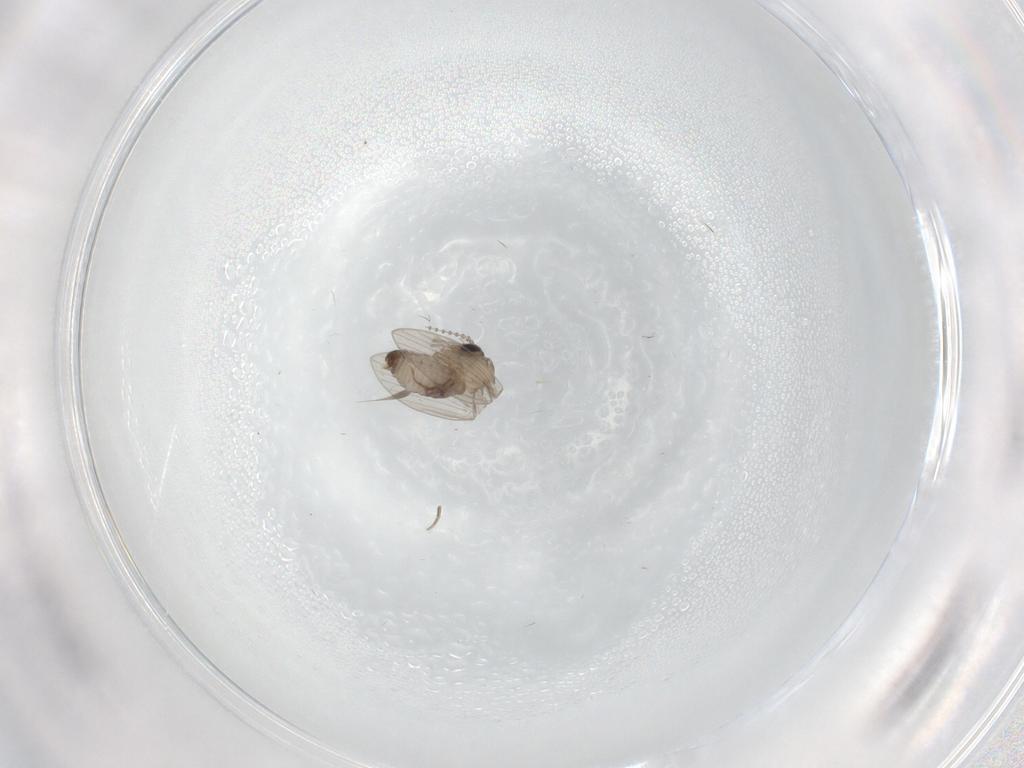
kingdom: Animalia
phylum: Arthropoda
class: Insecta
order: Diptera
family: Psychodidae
